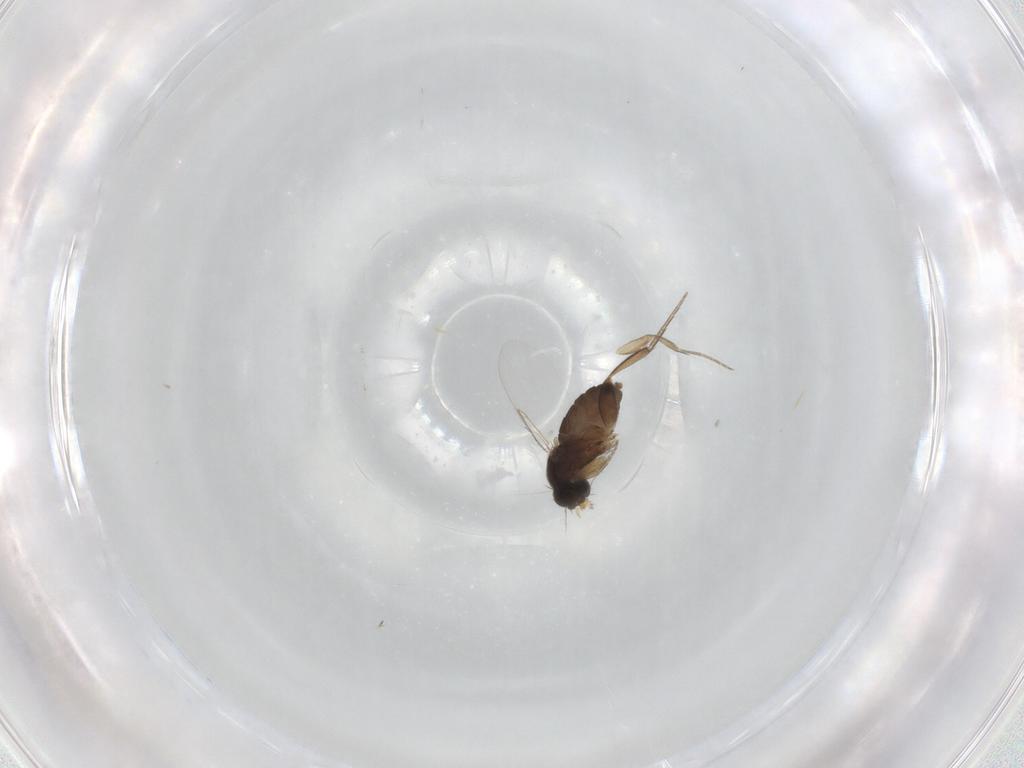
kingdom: Animalia
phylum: Arthropoda
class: Insecta
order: Diptera
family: Phoridae
